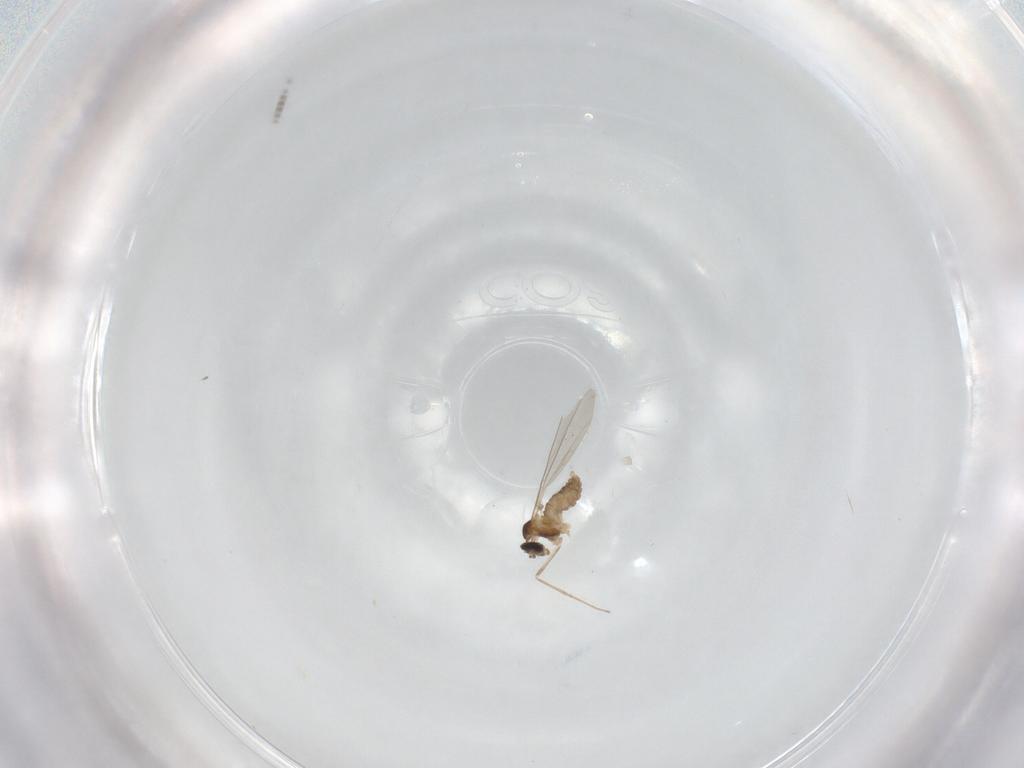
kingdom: Animalia
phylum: Arthropoda
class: Insecta
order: Diptera
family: Cecidomyiidae
